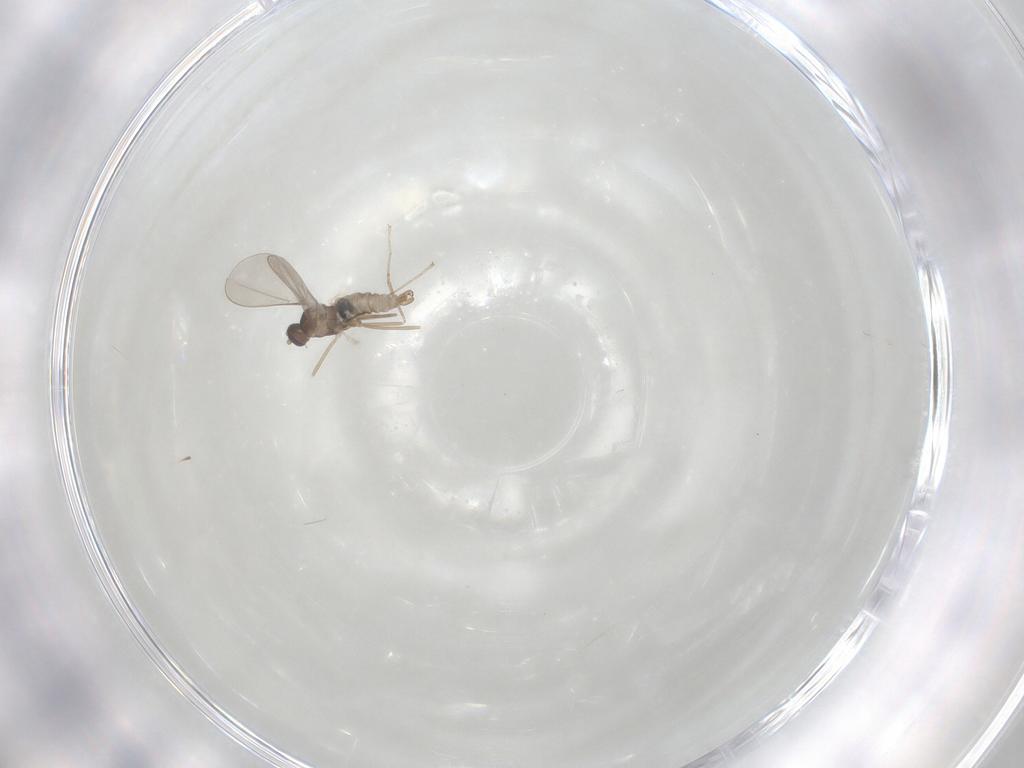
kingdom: Animalia
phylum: Arthropoda
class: Insecta
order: Diptera
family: Cecidomyiidae
